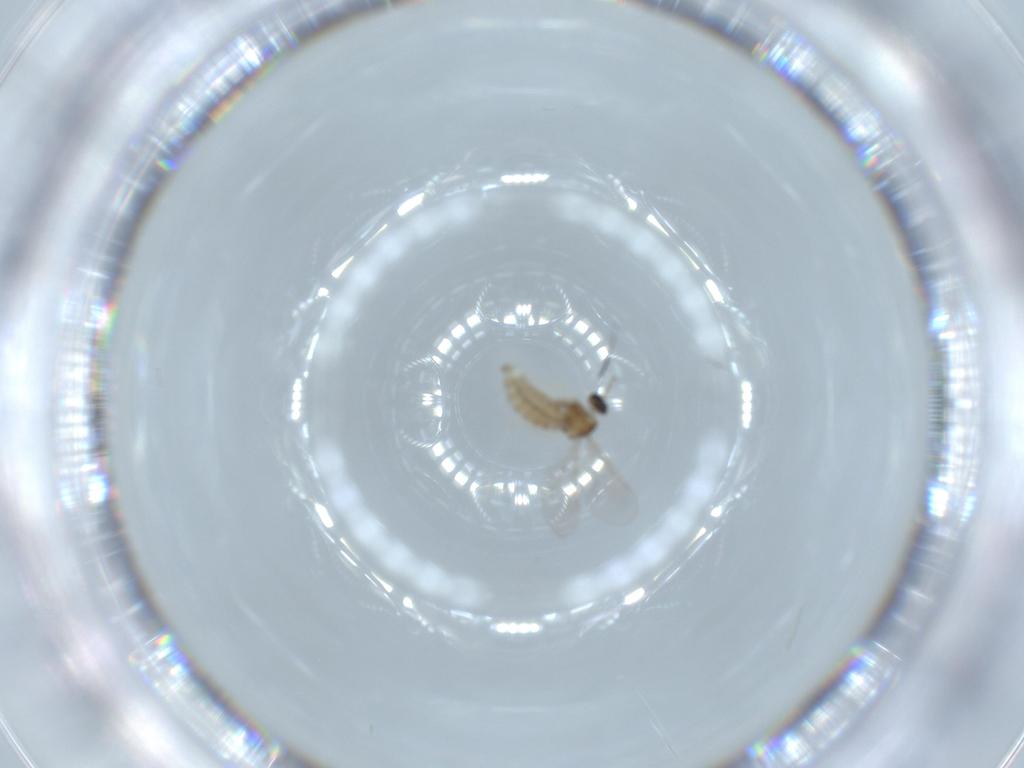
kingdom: Animalia
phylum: Arthropoda
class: Insecta
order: Diptera
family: Cecidomyiidae
